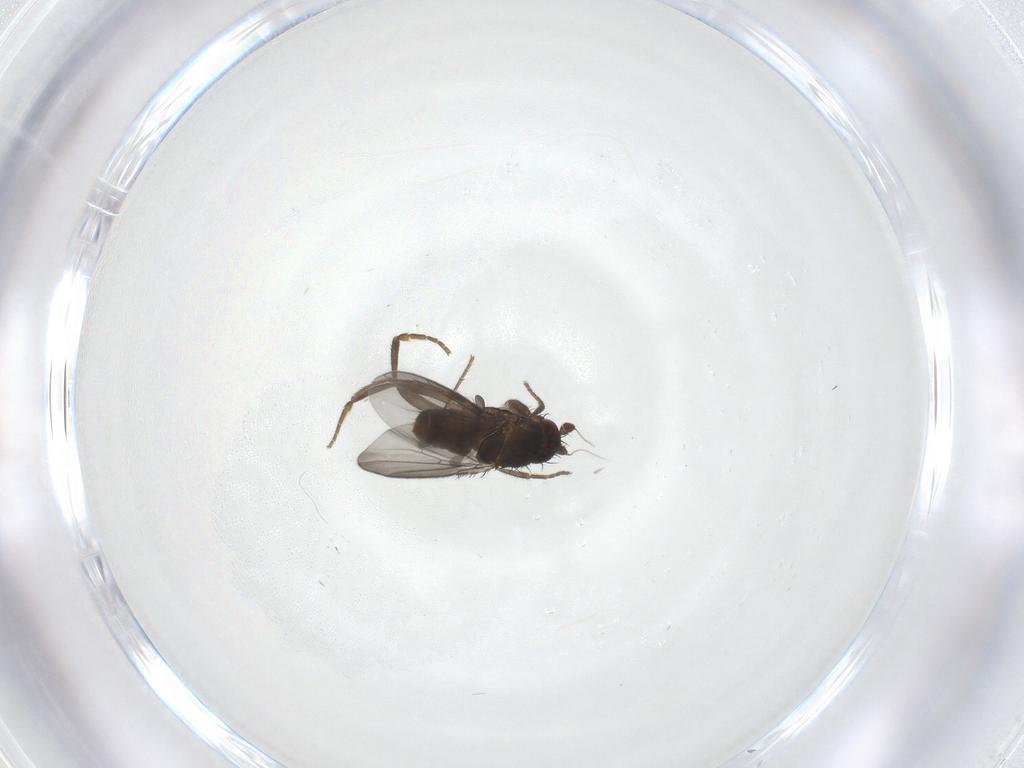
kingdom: Animalia
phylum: Arthropoda
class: Insecta
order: Diptera
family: Sphaeroceridae
